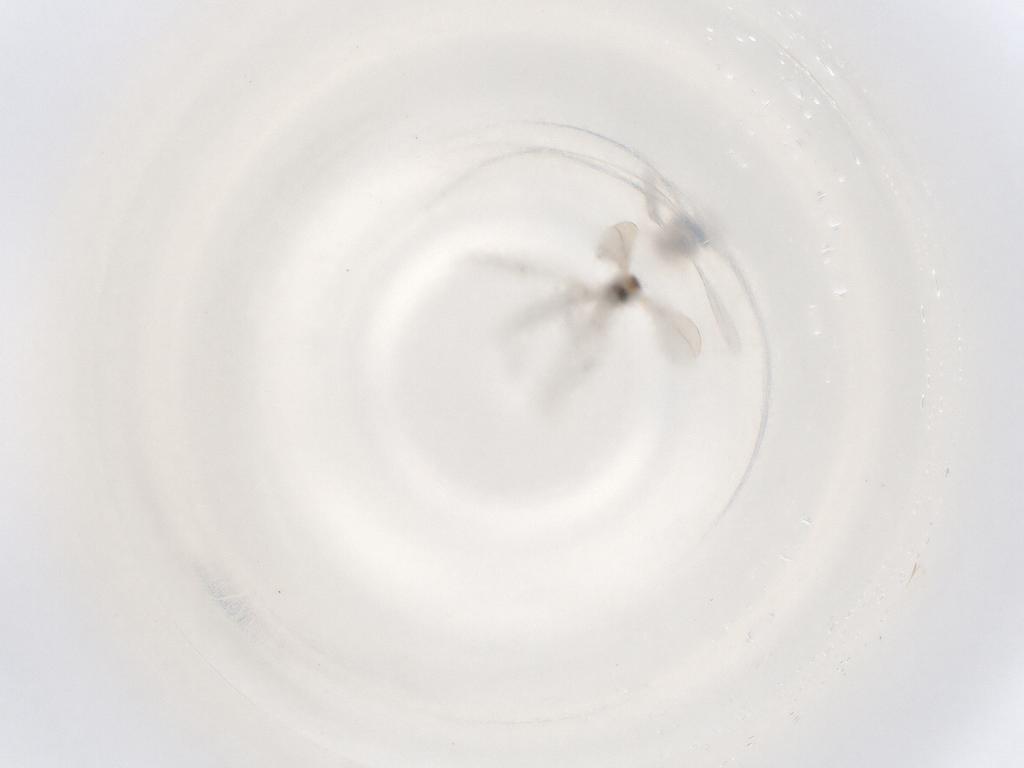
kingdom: Animalia
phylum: Arthropoda
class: Insecta
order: Diptera
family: Cecidomyiidae
